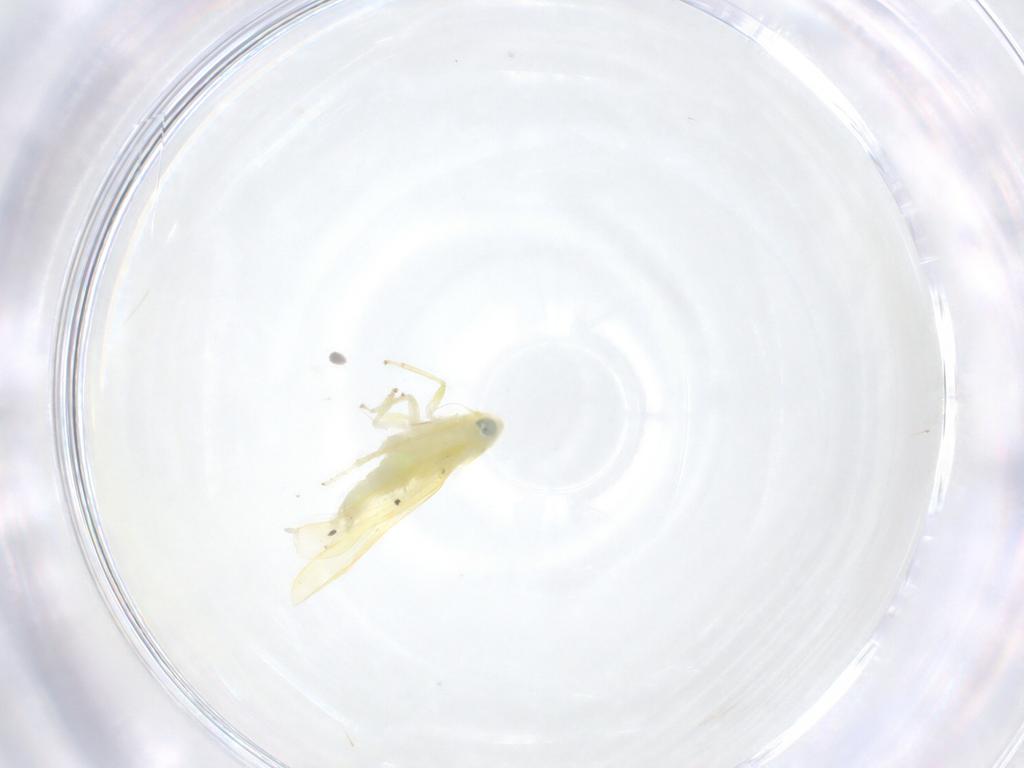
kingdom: Animalia
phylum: Arthropoda
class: Insecta
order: Hemiptera
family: Cicadellidae
